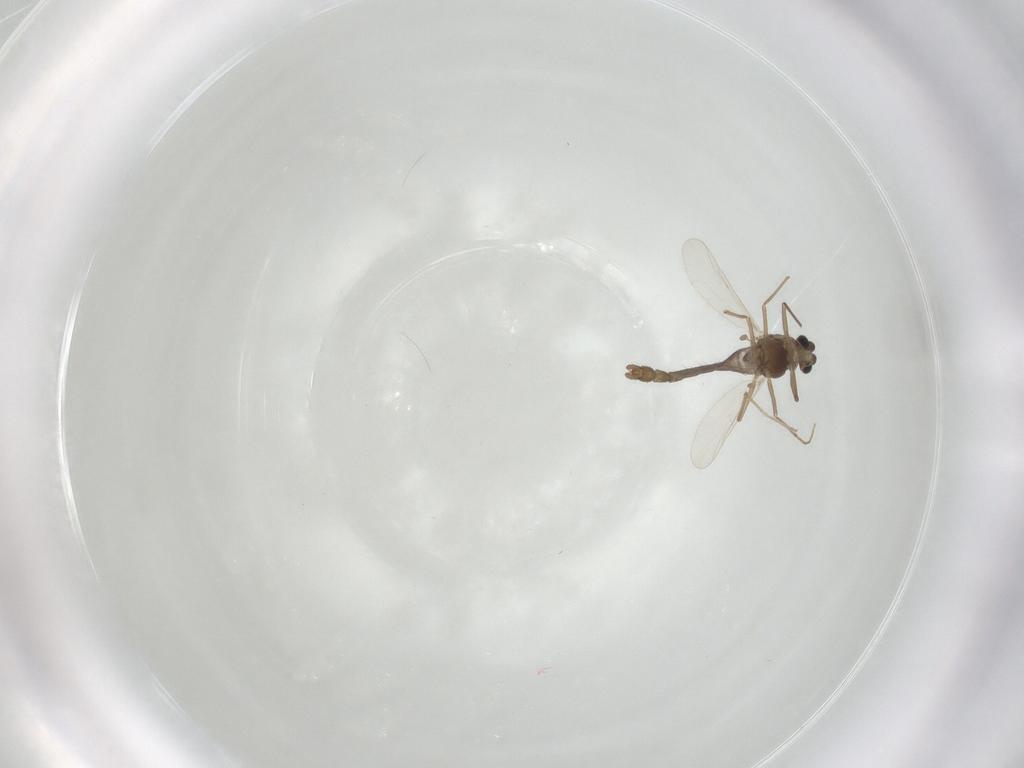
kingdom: Animalia
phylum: Arthropoda
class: Insecta
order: Diptera
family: Chironomidae
